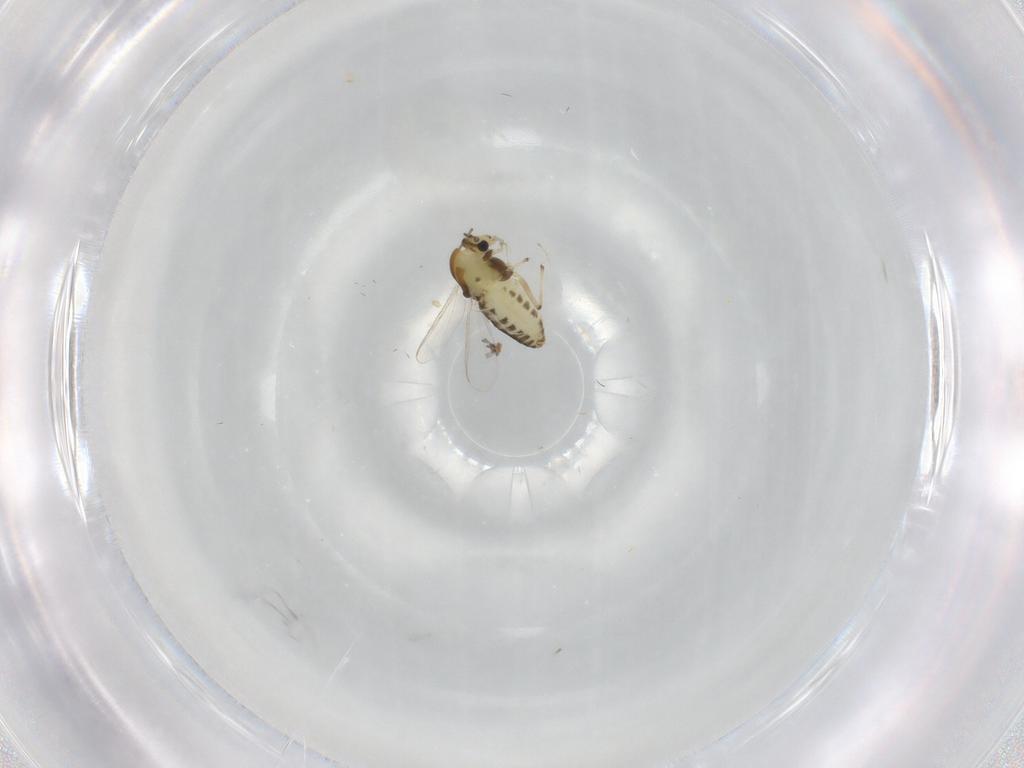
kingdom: Animalia
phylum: Arthropoda
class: Insecta
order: Diptera
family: Chironomidae
